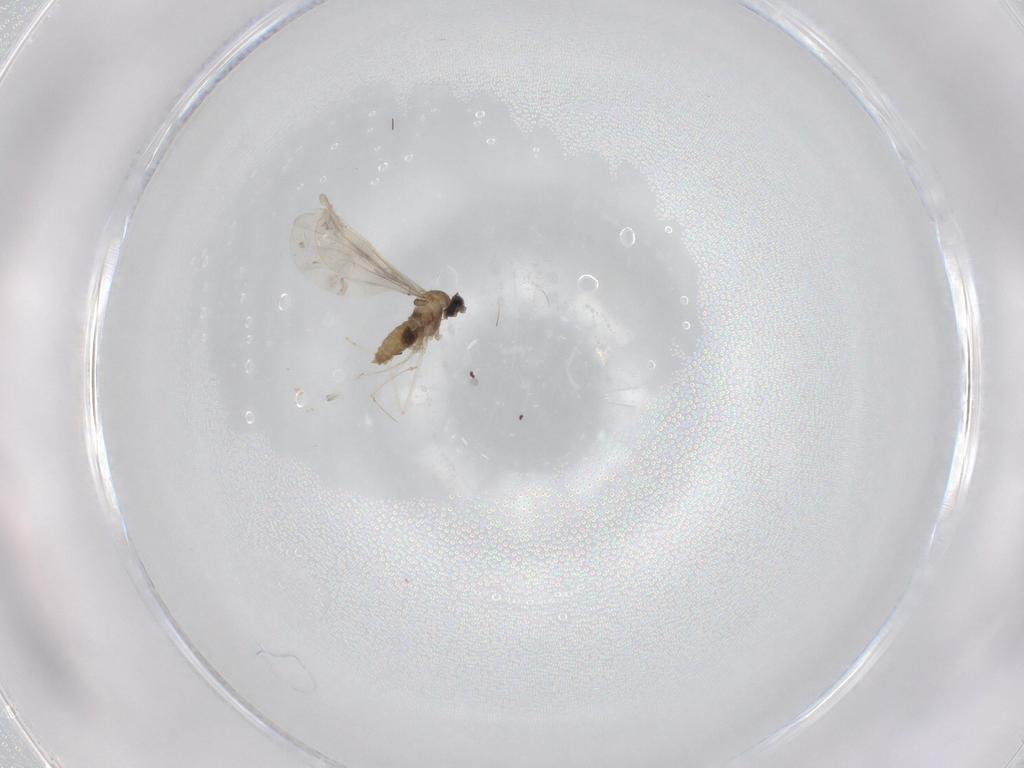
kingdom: Animalia
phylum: Arthropoda
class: Insecta
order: Diptera
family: Cecidomyiidae
